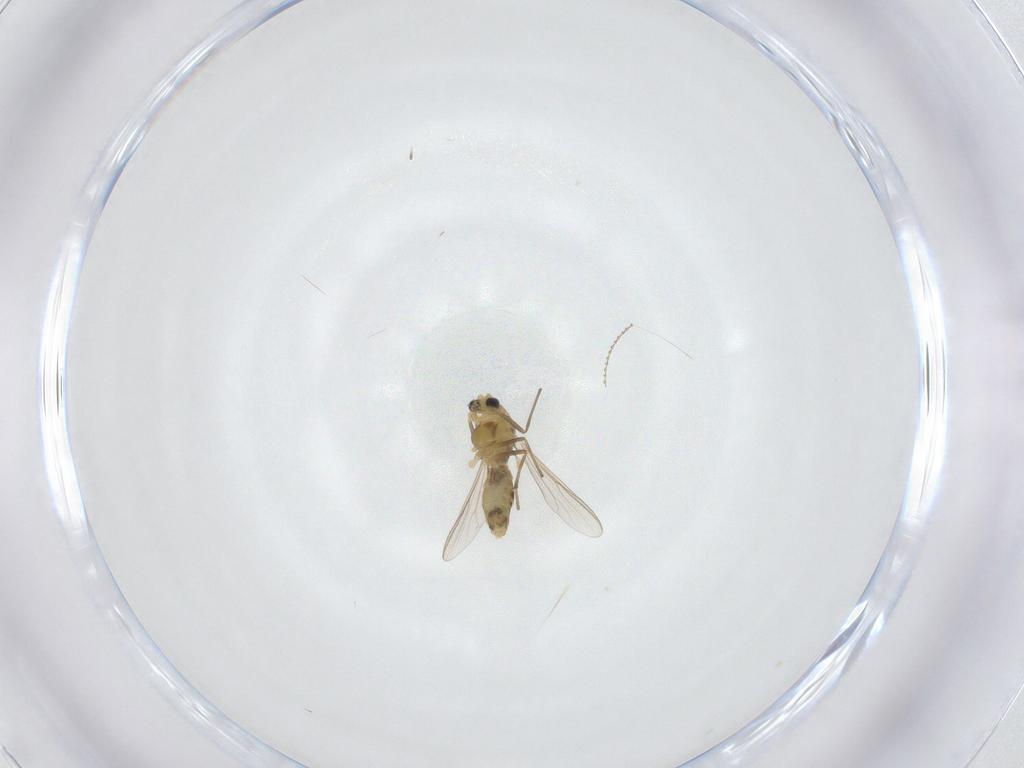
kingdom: Animalia
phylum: Arthropoda
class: Insecta
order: Diptera
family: Cecidomyiidae
